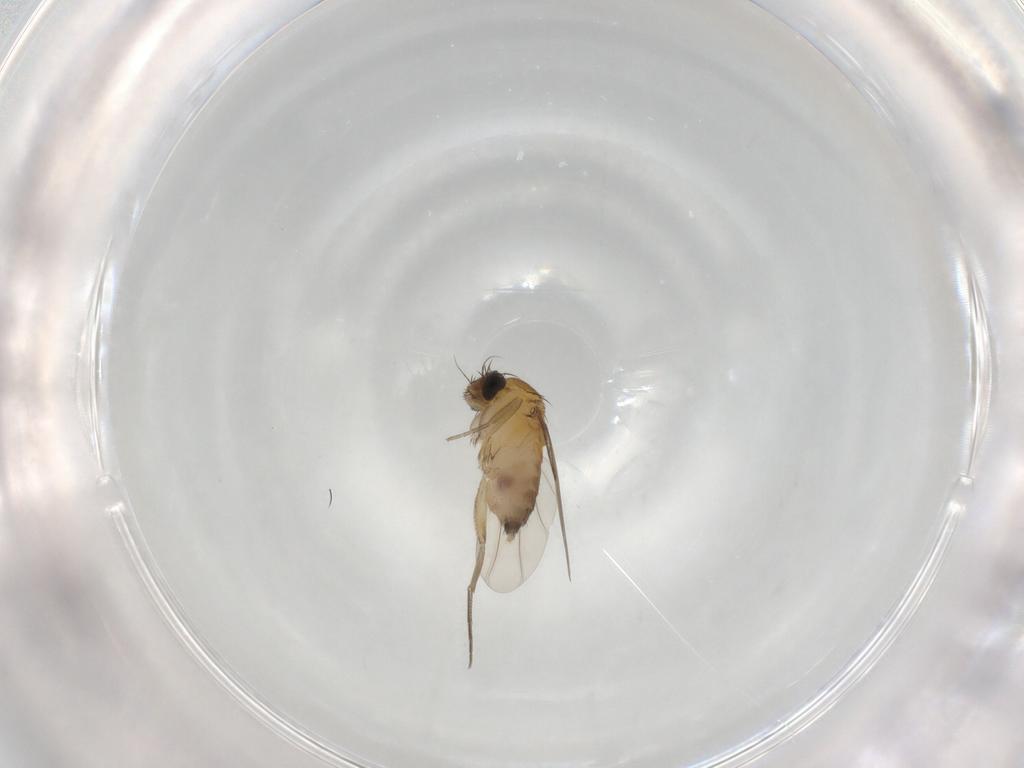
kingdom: Animalia
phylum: Arthropoda
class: Insecta
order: Diptera
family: Phoridae
